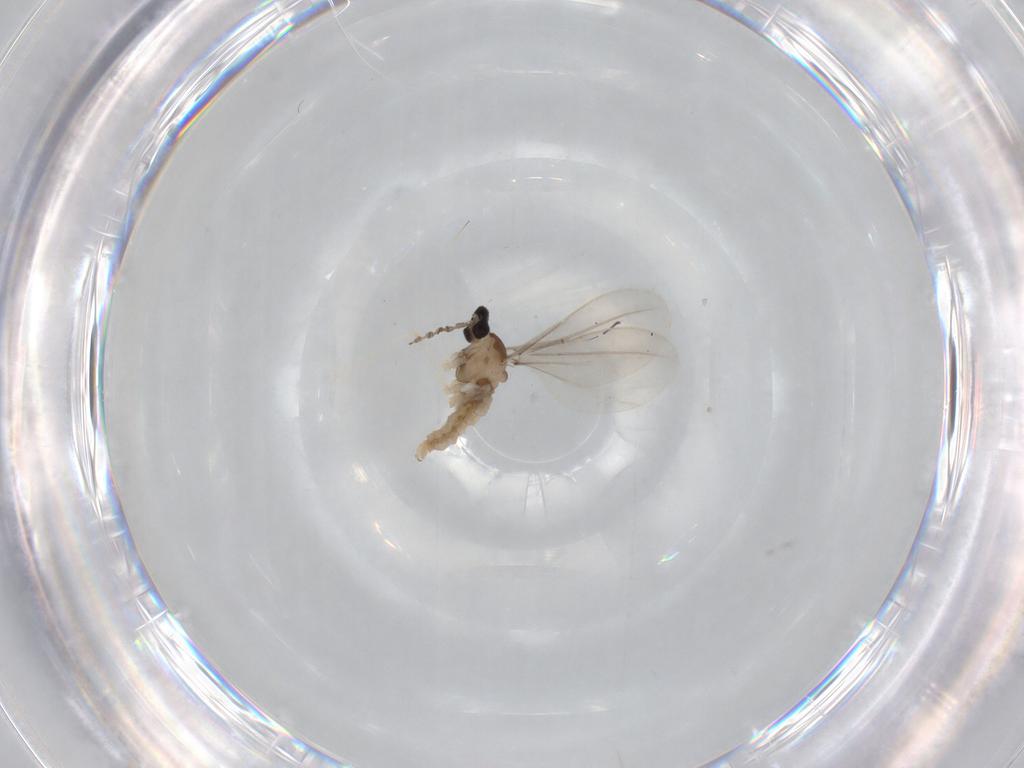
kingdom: Animalia
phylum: Arthropoda
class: Insecta
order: Diptera
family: Cecidomyiidae
